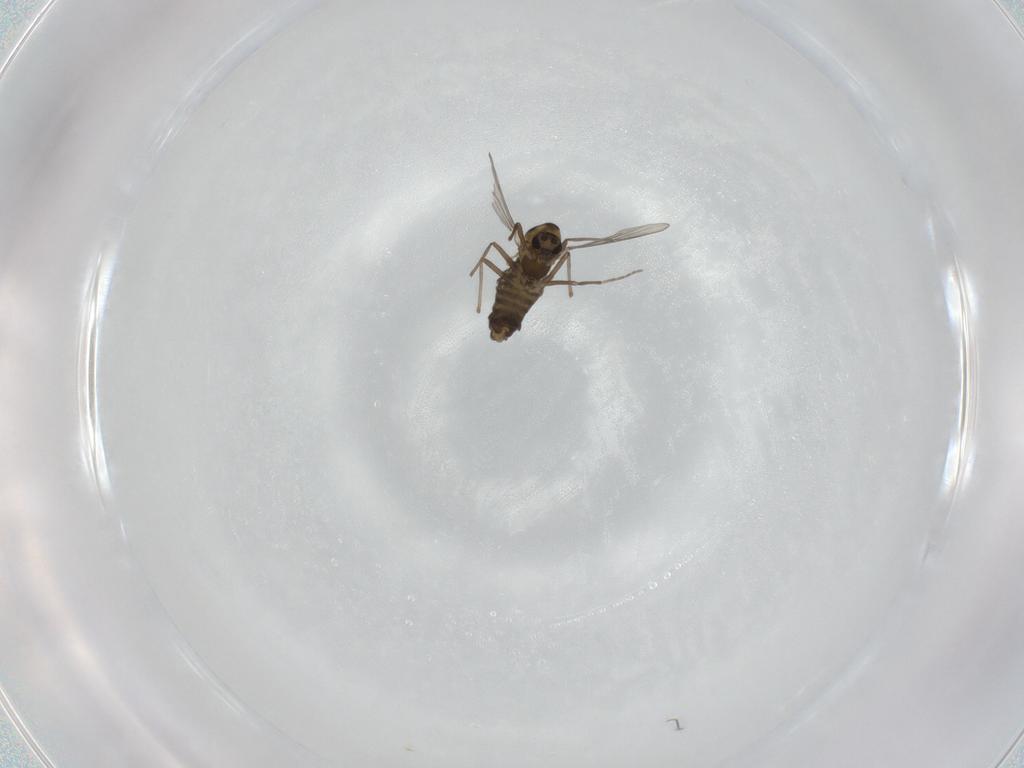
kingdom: Animalia
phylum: Arthropoda
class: Insecta
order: Diptera
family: Chironomidae
